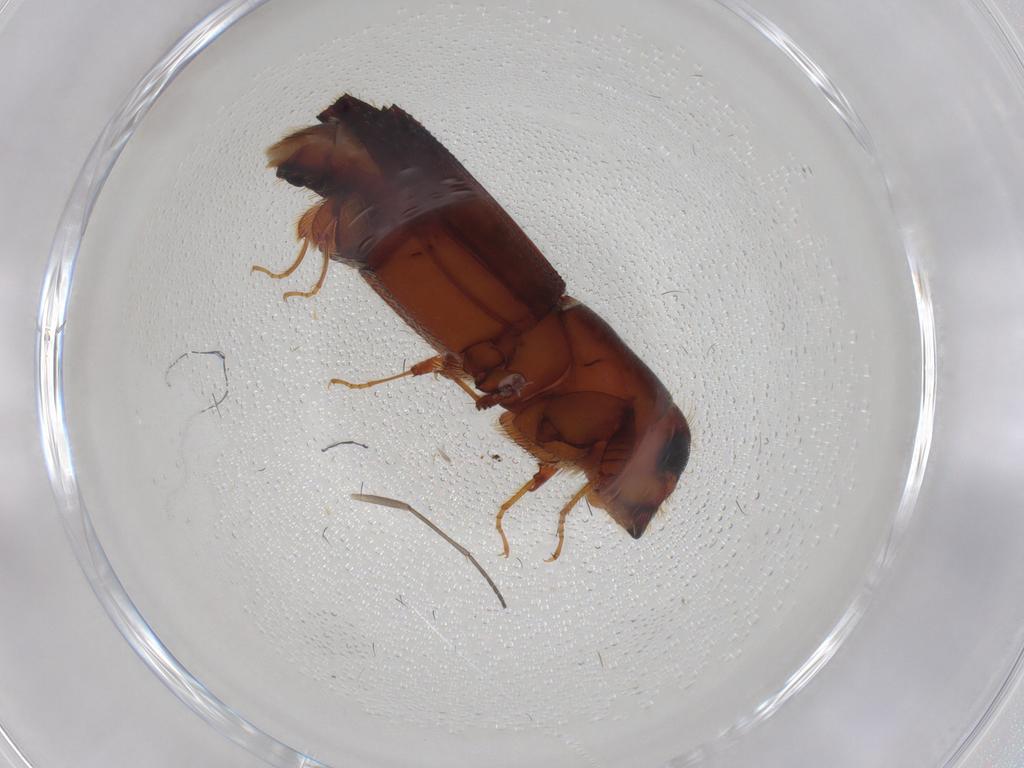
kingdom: Animalia
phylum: Arthropoda
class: Insecta
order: Coleoptera
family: Curculionidae
